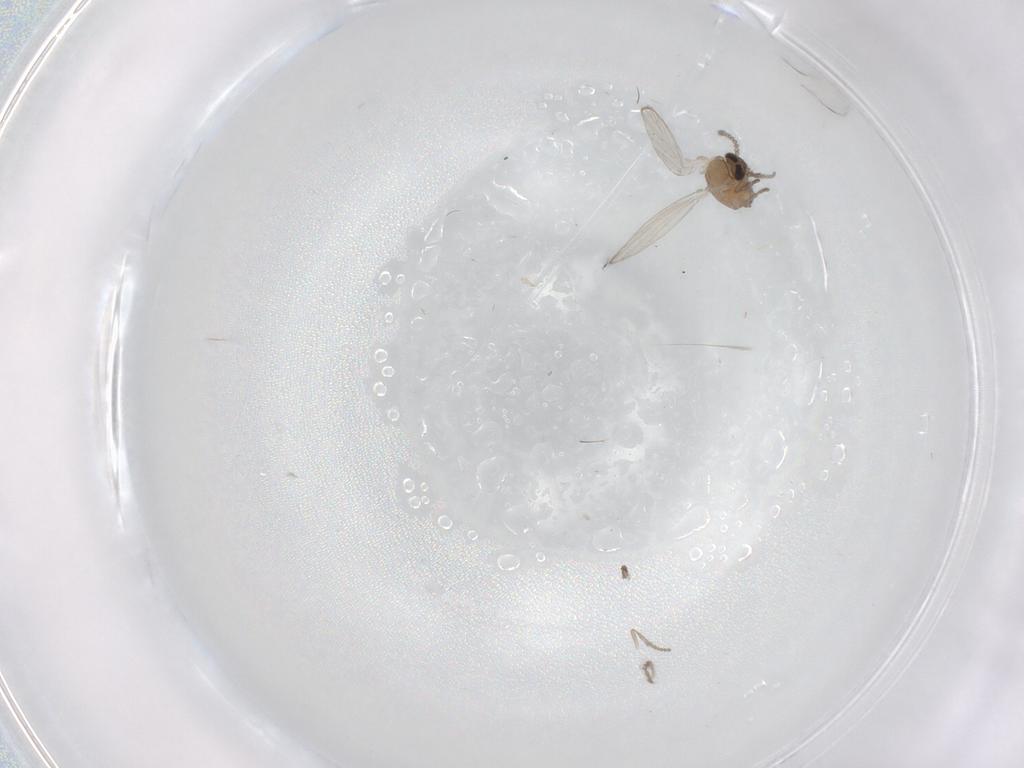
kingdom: Animalia
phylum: Arthropoda
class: Insecta
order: Diptera
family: Psychodidae
